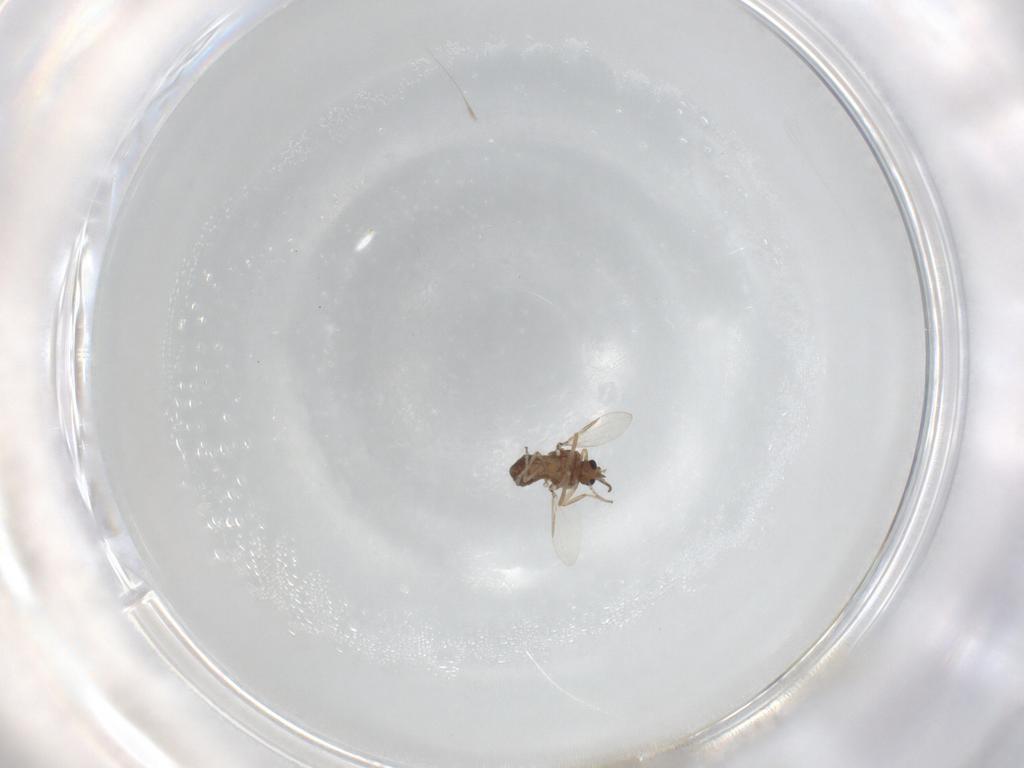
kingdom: Animalia
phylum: Arthropoda
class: Insecta
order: Diptera
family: Ceratopogonidae
